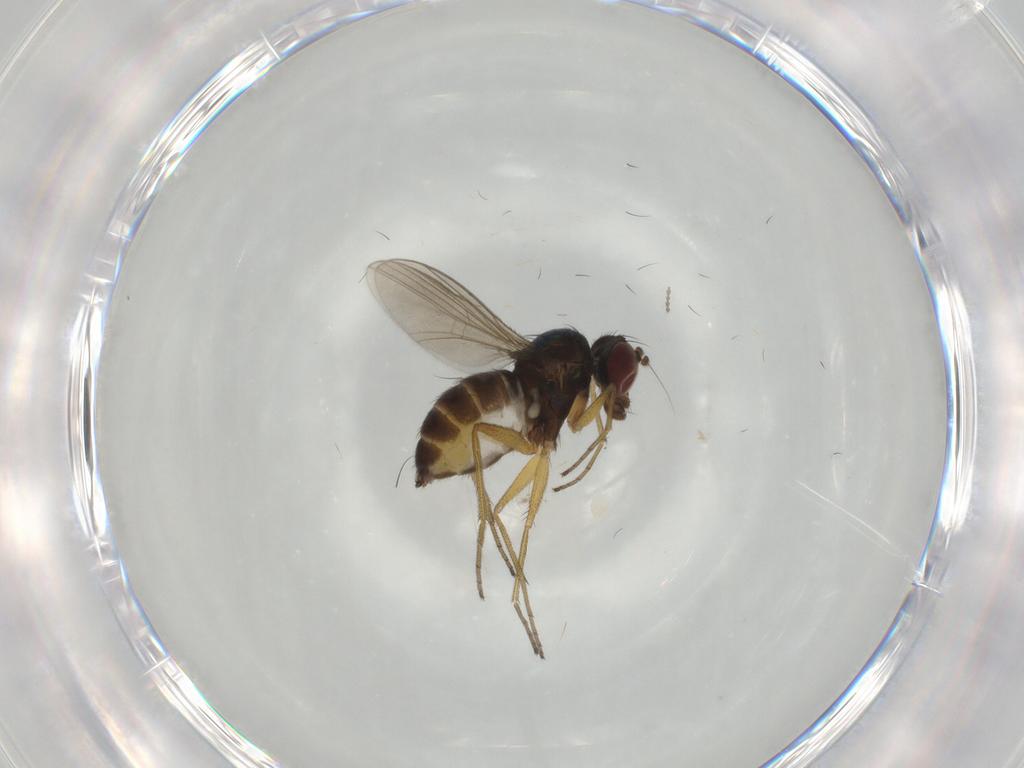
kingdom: Animalia
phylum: Arthropoda
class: Insecta
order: Diptera
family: Dolichopodidae
